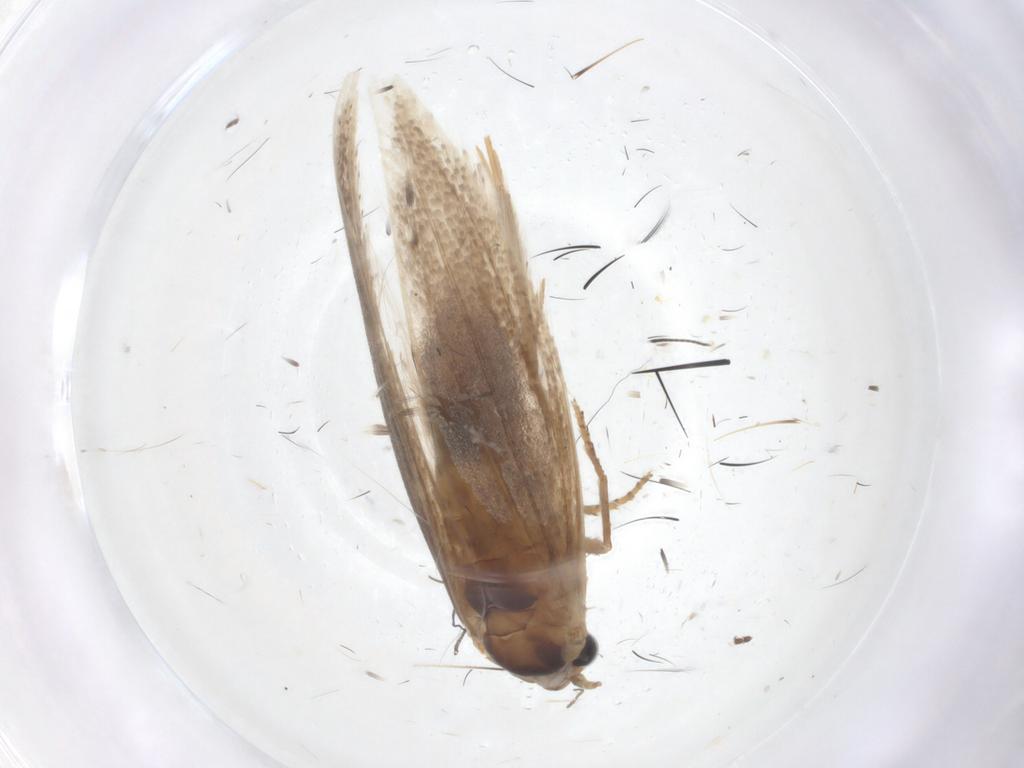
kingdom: Animalia
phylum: Arthropoda
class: Insecta
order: Lepidoptera
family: Bucculatricidae
